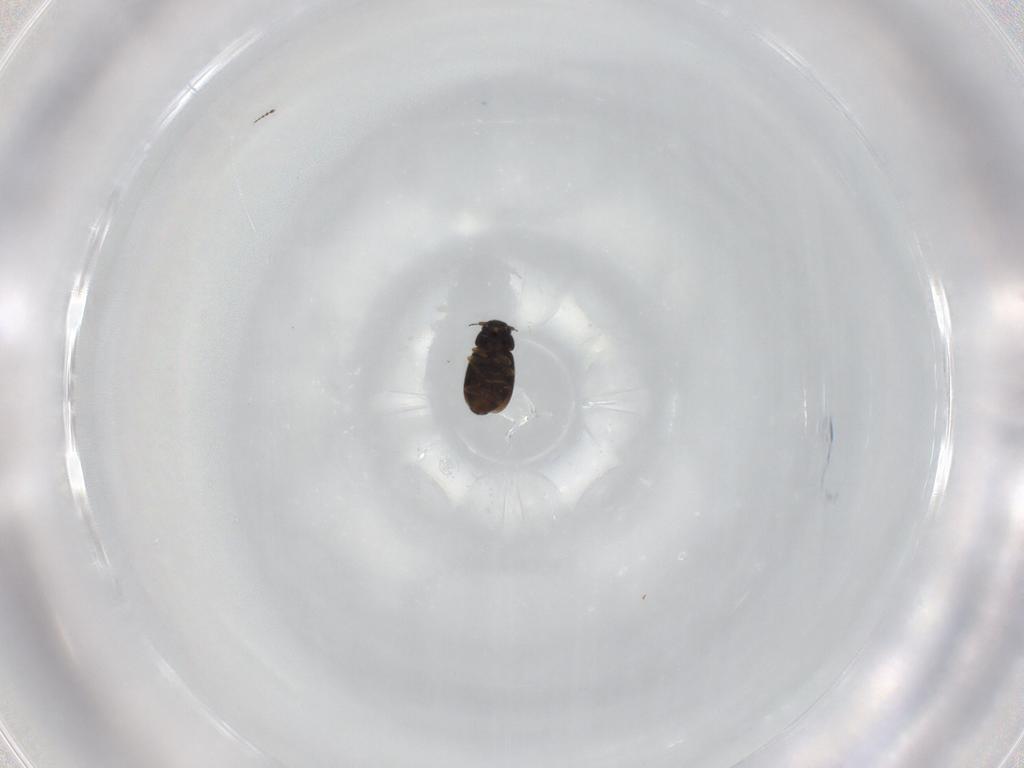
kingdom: Animalia
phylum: Arthropoda
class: Insecta
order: Coleoptera
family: Ptiliidae
